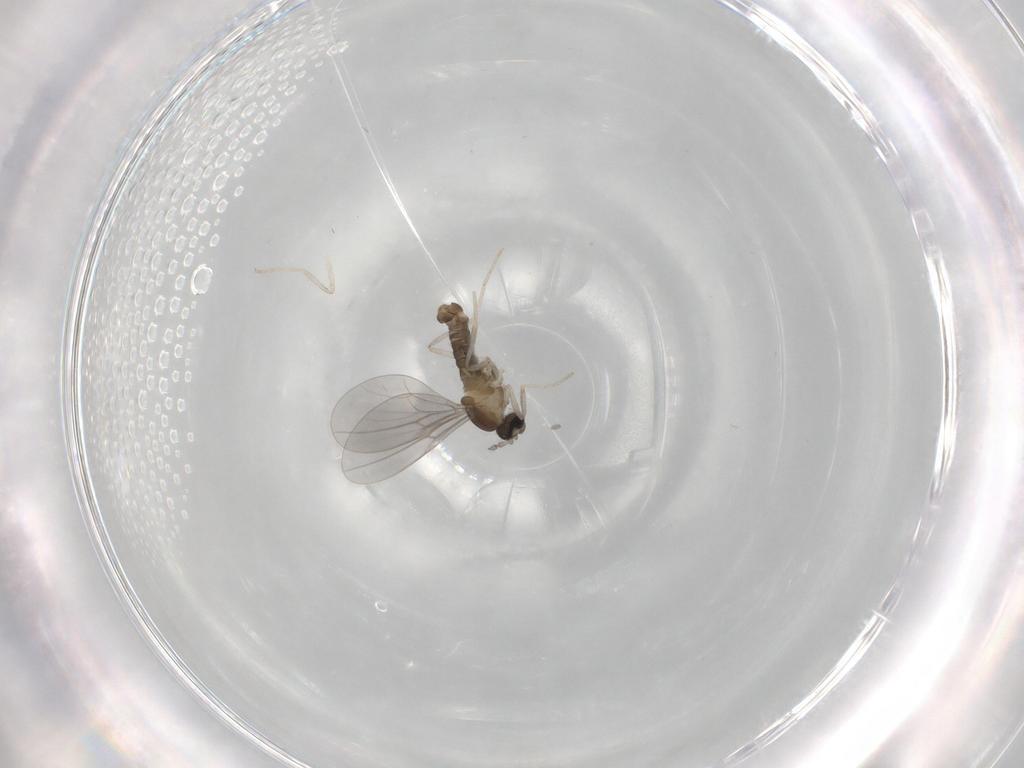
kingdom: Animalia
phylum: Arthropoda
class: Insecta
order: Diptera
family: Cecidomyiidae
